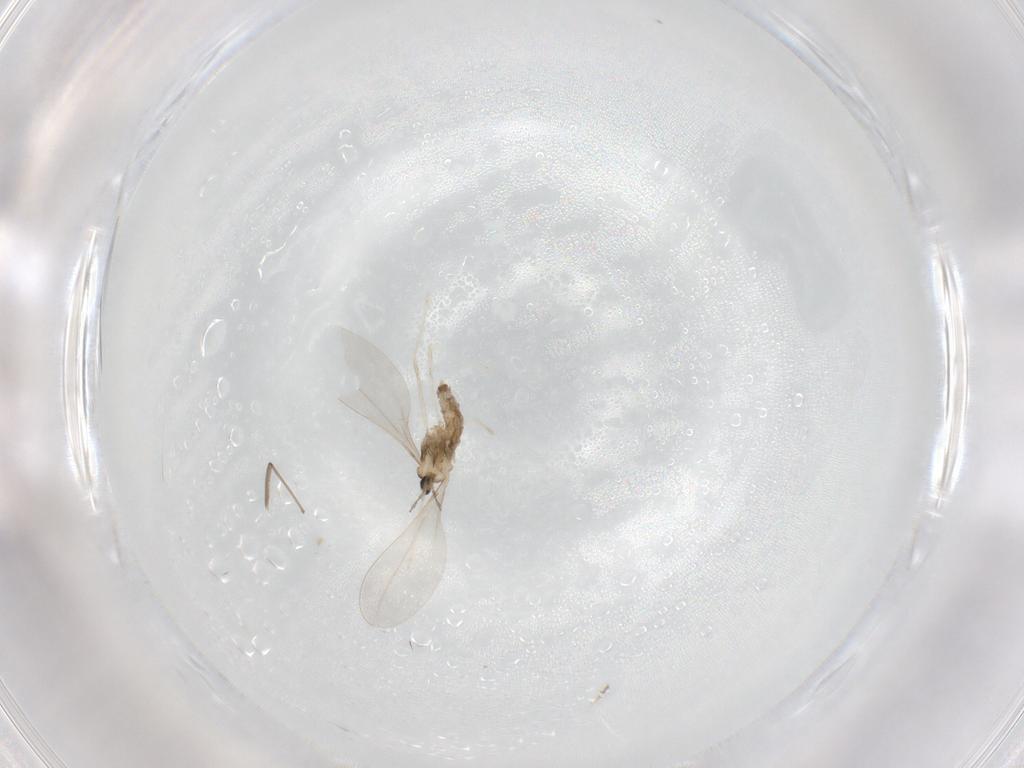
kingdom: Animalia
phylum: Arthropoda
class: Insecta
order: Diptera
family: Cecidomyiidae
